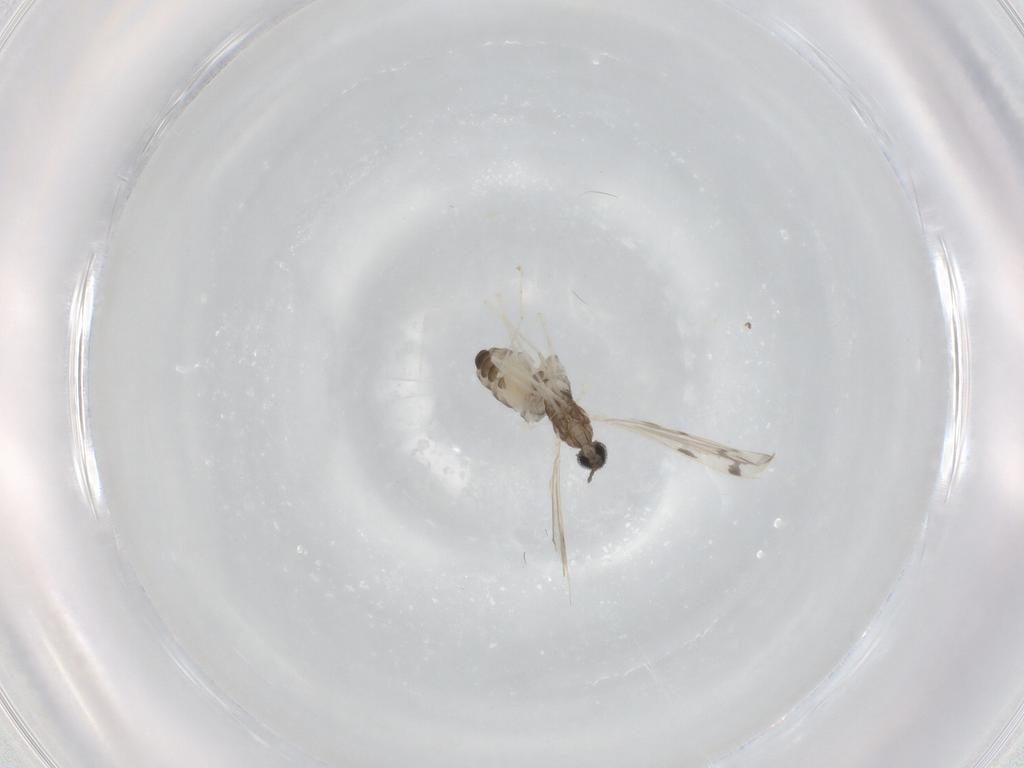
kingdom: Animalia
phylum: Arthropoda
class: Insecta
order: Diptera
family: Cecidomyiidae
